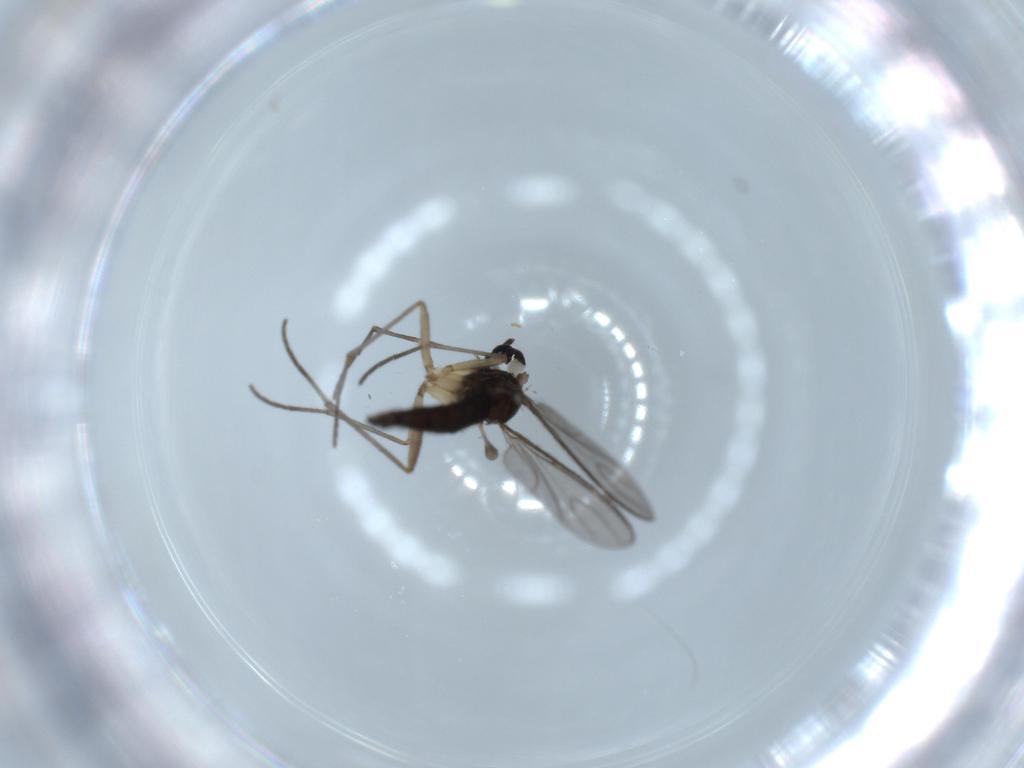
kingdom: Animalia
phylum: Arthropoda
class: Insecta
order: Diptera
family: Sciaridae
